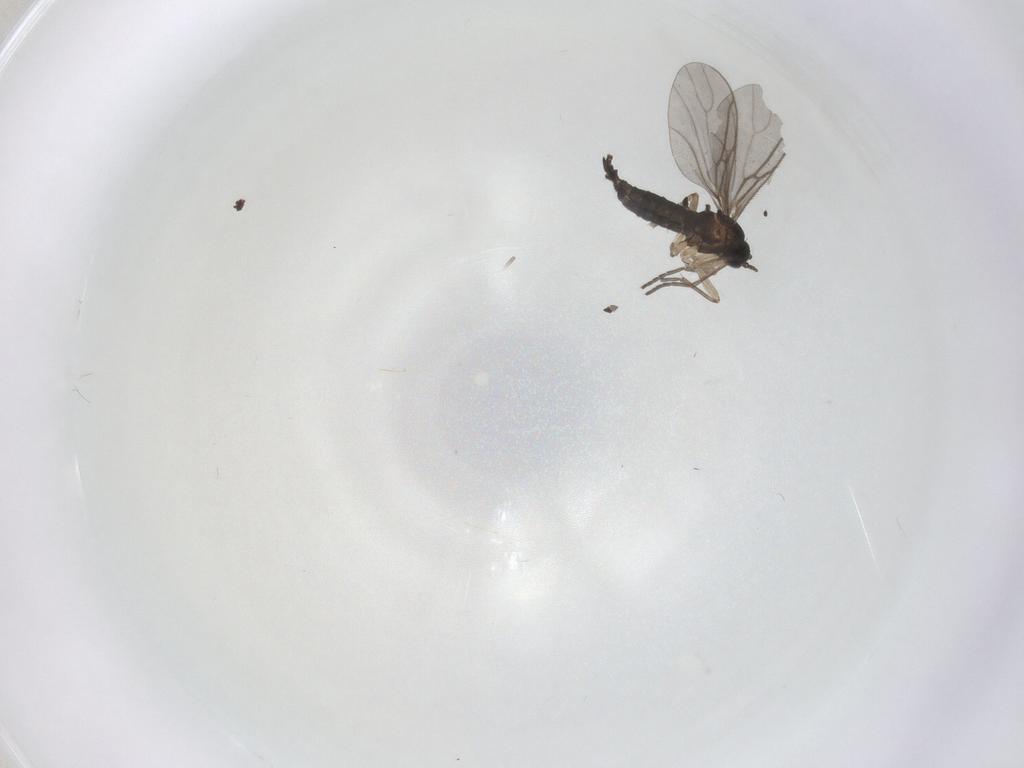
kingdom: Animalia
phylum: Arthropoda
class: Insecta
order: Diptera
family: Sciaridae
